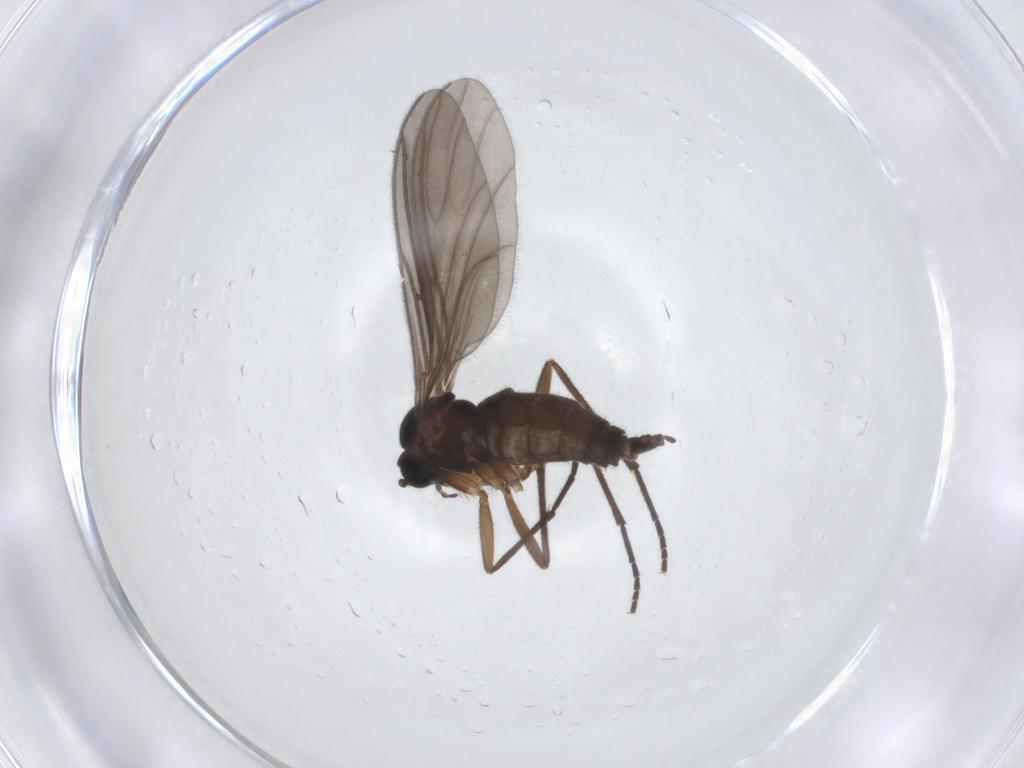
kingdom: Animalia
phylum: Arthropoda
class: Insecta
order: Diptera
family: Sciaridae
